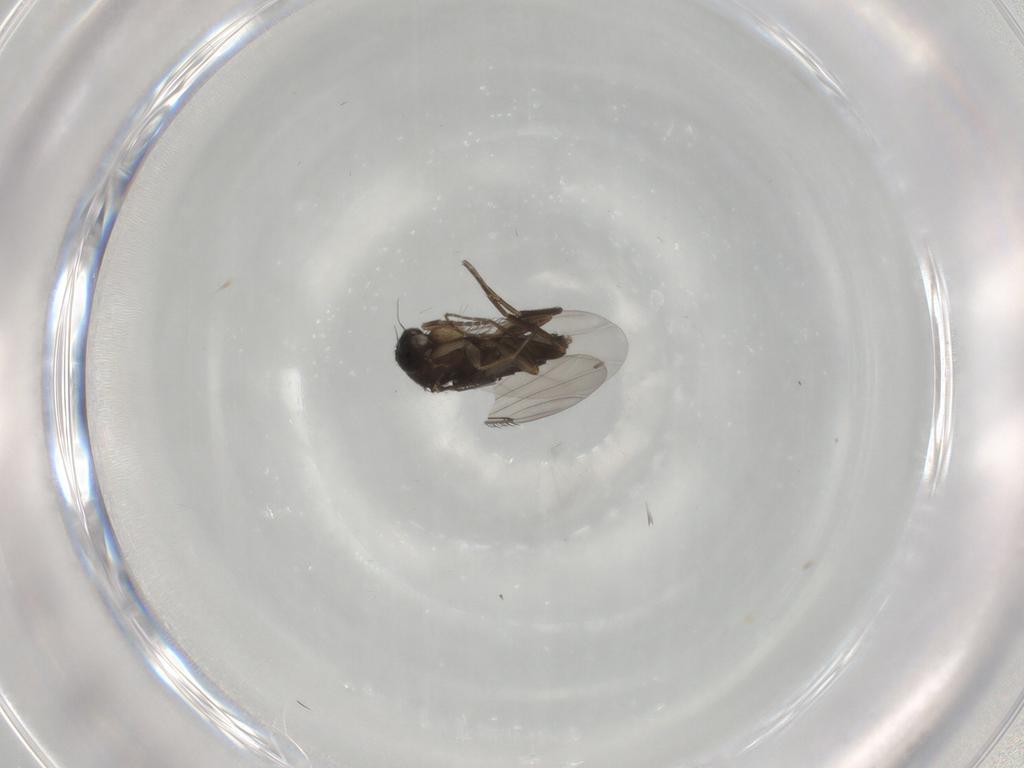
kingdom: Animalia
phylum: Arthropoda
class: Insecta
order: Diptera
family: Phoridae
